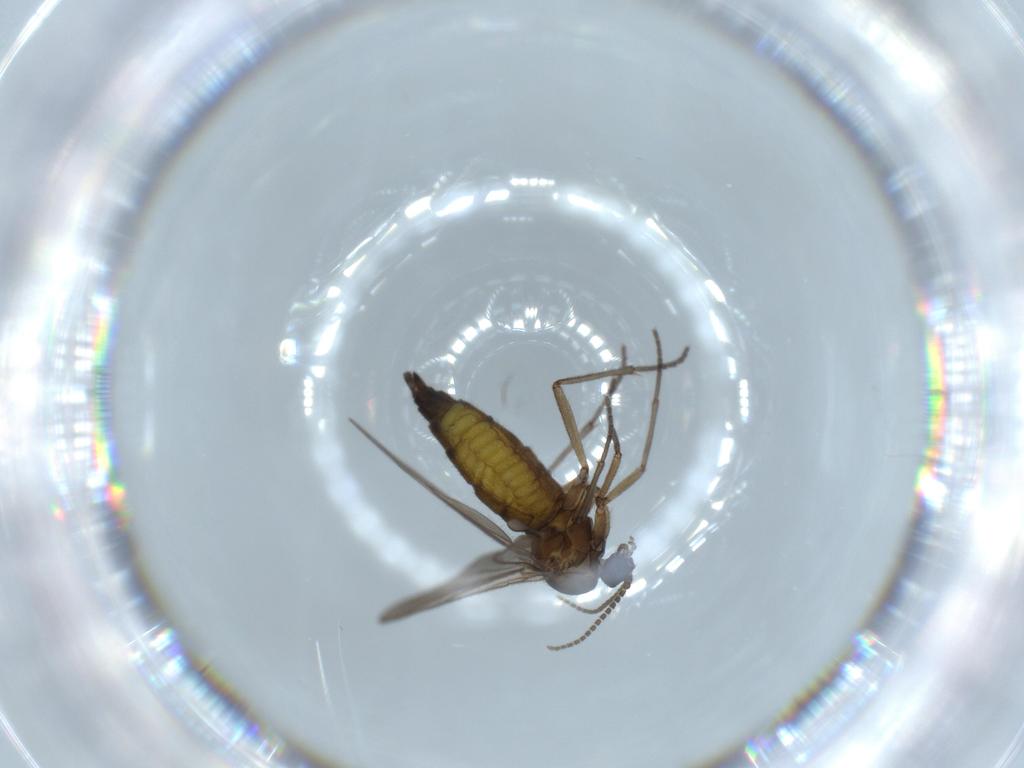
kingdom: Animalia
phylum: Arthropoda
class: Insecta
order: Diptera
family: Sciaridae
